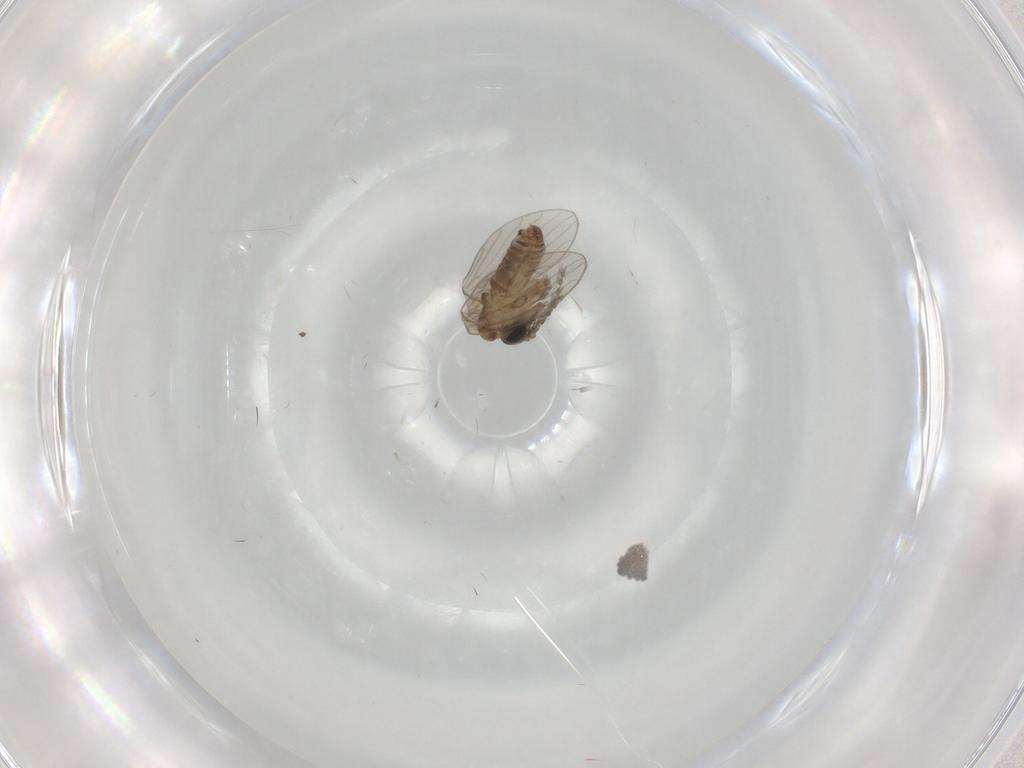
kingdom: Animalia
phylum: Arthropoda
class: Insecta
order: Diptera
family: Psychodidae
